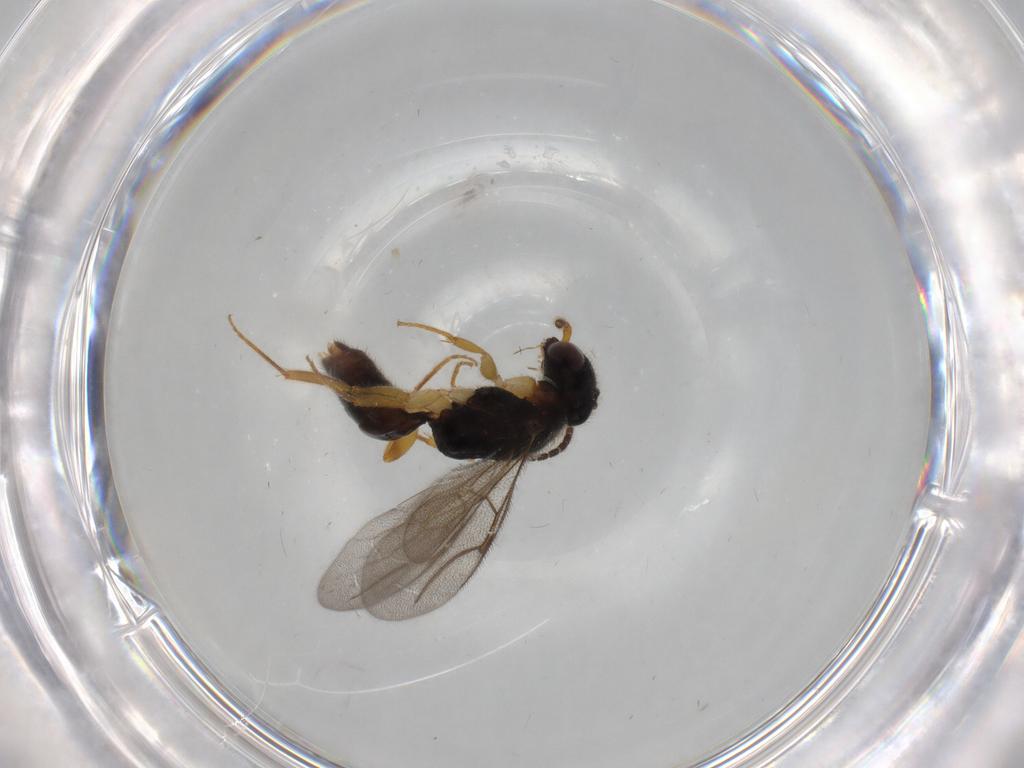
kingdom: Animalia
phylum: Arthropoda
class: Insecta
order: Hymenoptera
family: Bethylidae
